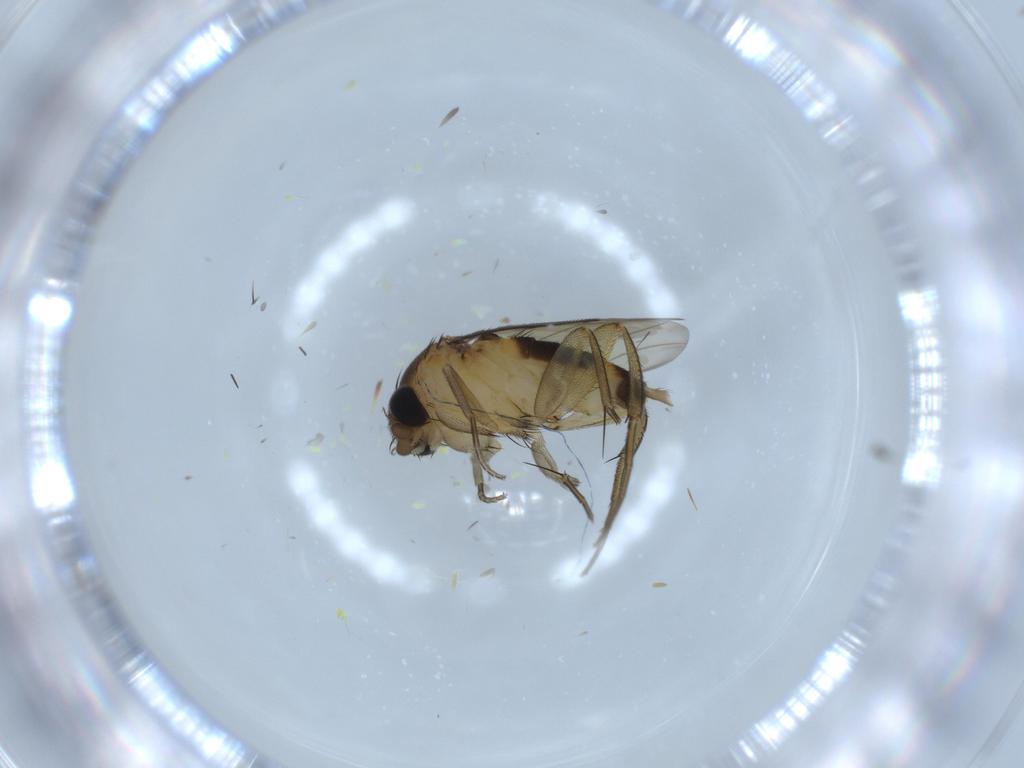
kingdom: Animalia
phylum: Arthropoda
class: Insecta
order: Diptera
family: Phoridae
